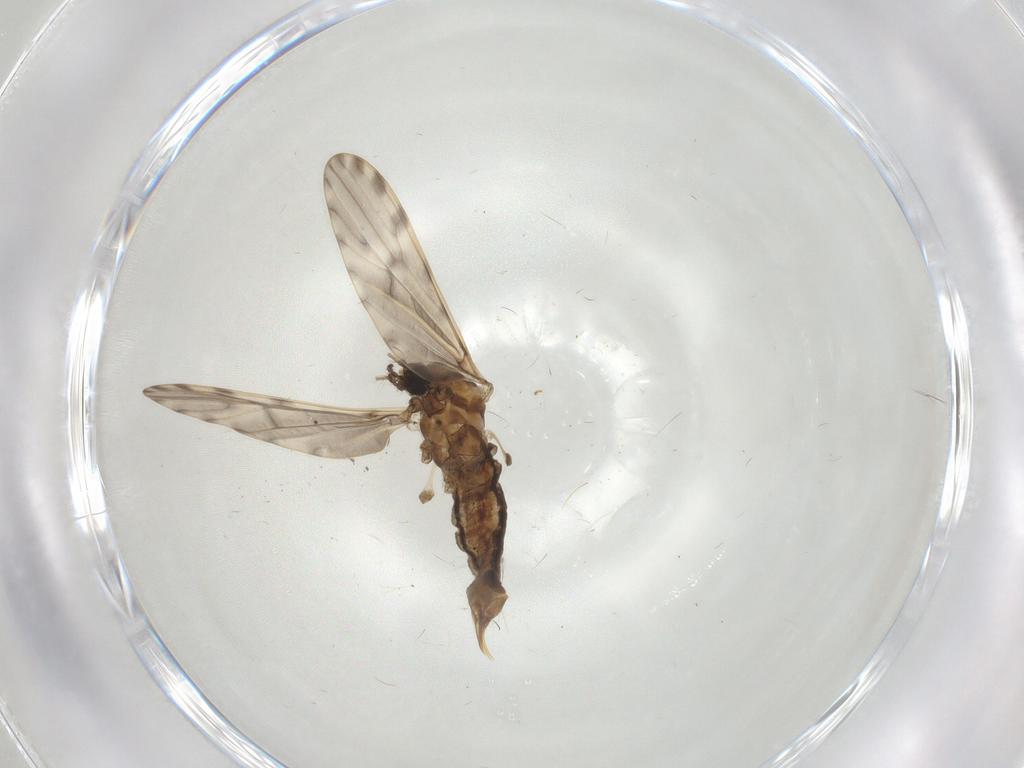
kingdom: Animalia
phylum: Arthropoda
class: Insecta
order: Diptera
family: Limoniidae
